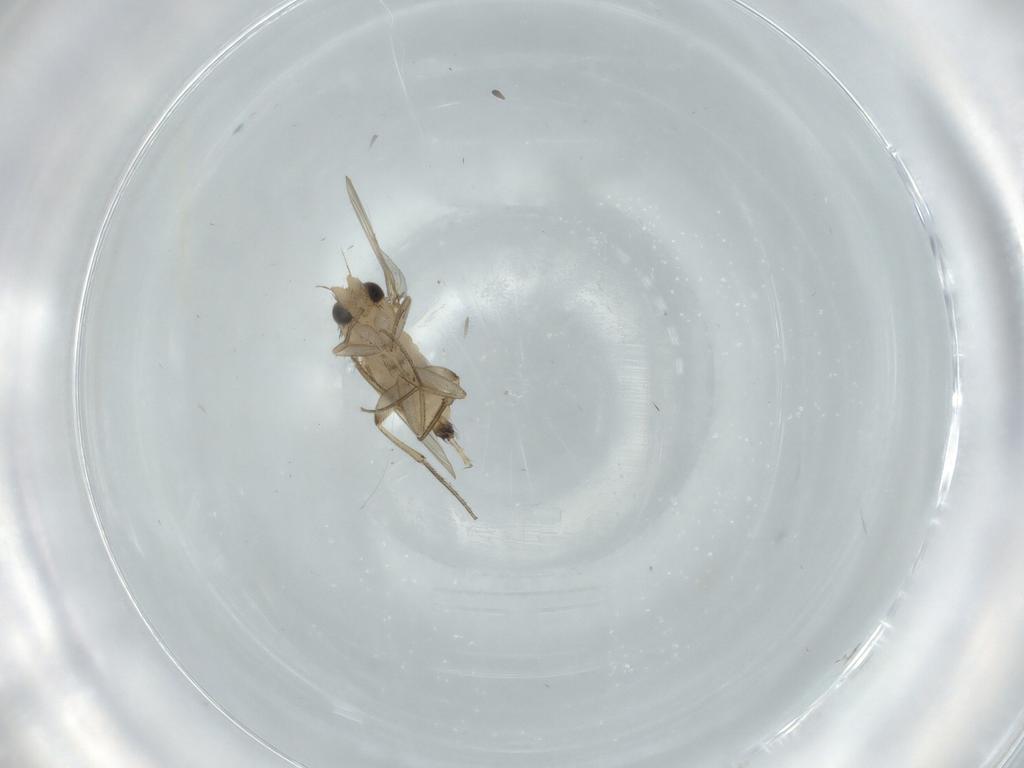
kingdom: Animalia
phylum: Arthropoda
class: Insecta
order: Diptera
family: Phoridae
